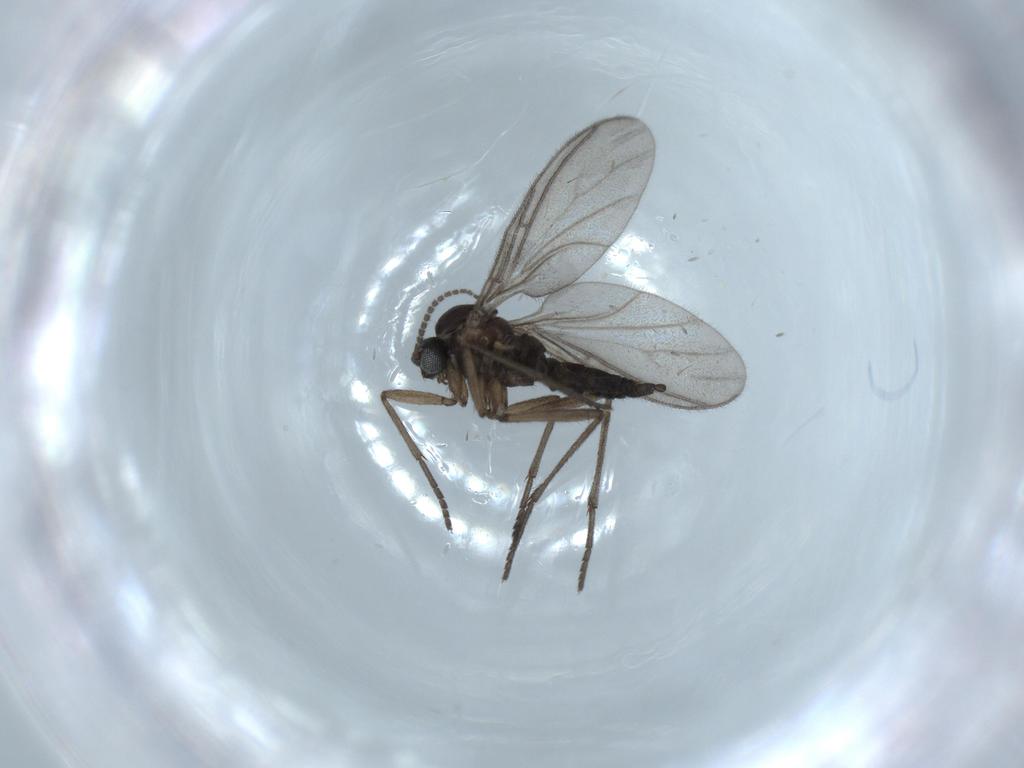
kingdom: Animalia
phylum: Arthropoda
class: Insecta
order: Diptera
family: Sciaridae
